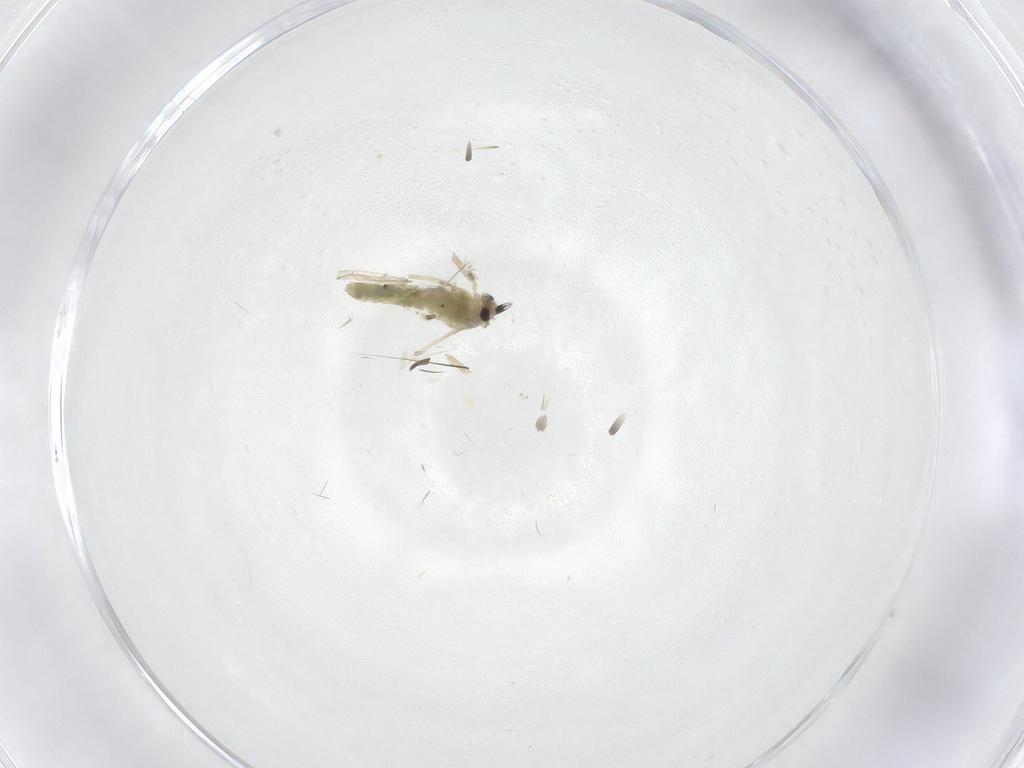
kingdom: Animalia
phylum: Arthropoda
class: Insecta
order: Diptera
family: Chironomidae
